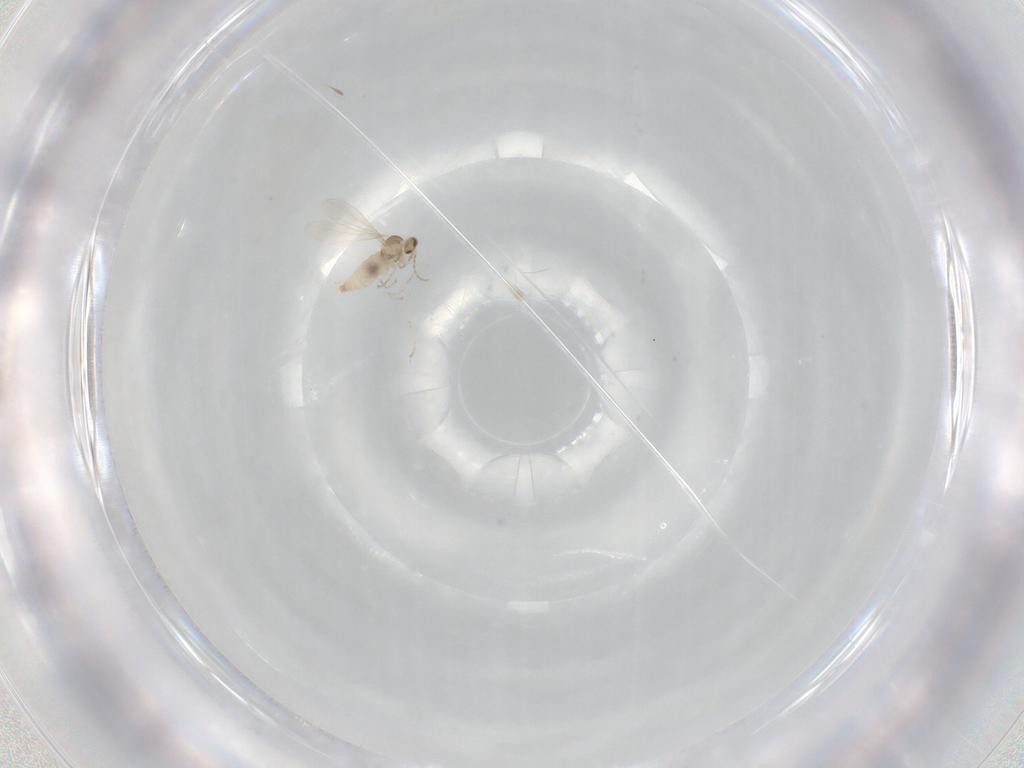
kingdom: Animalia
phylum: Arthropoda
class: Insecta
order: Diptera
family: Cecidomyiidae
